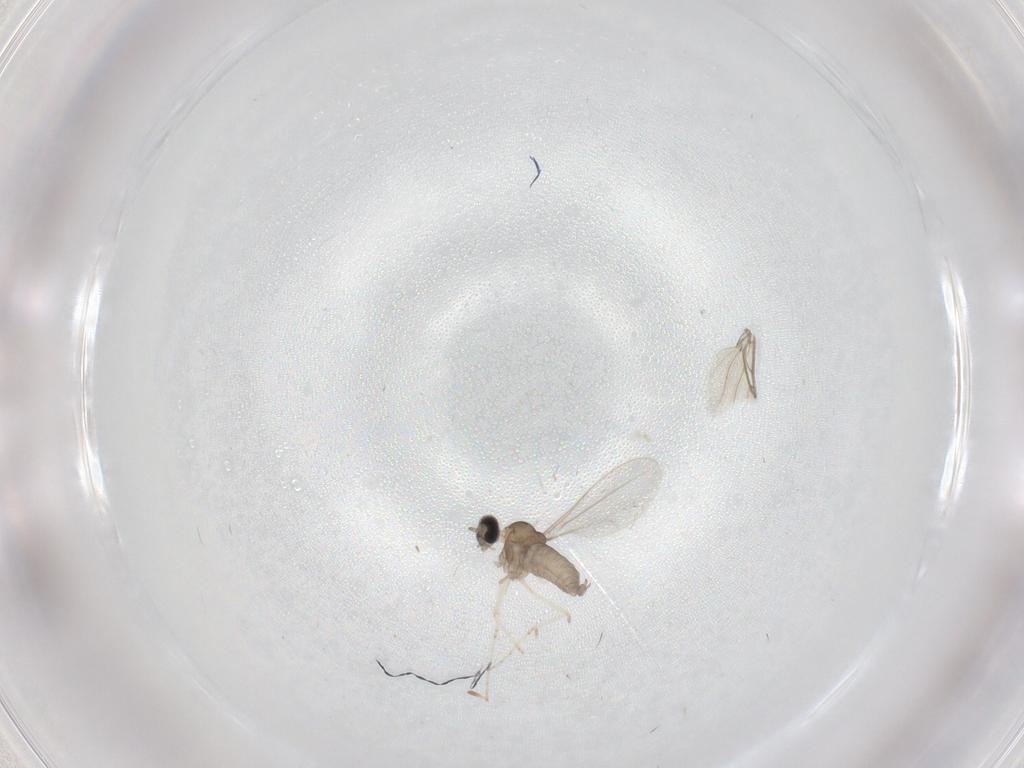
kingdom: Animalia
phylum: Arthropoda
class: Insecta
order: Diptera
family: Cecidomyiidae
